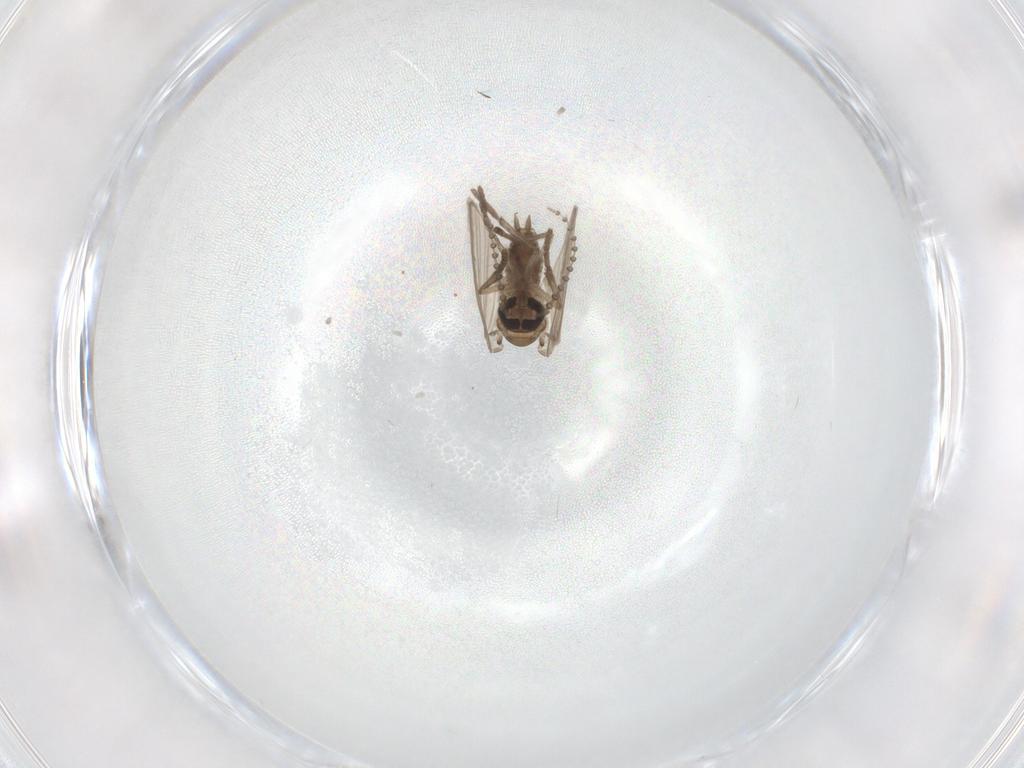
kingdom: Animalia
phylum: Arthropoda
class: Insecta
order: Diptera
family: Psychodidae
